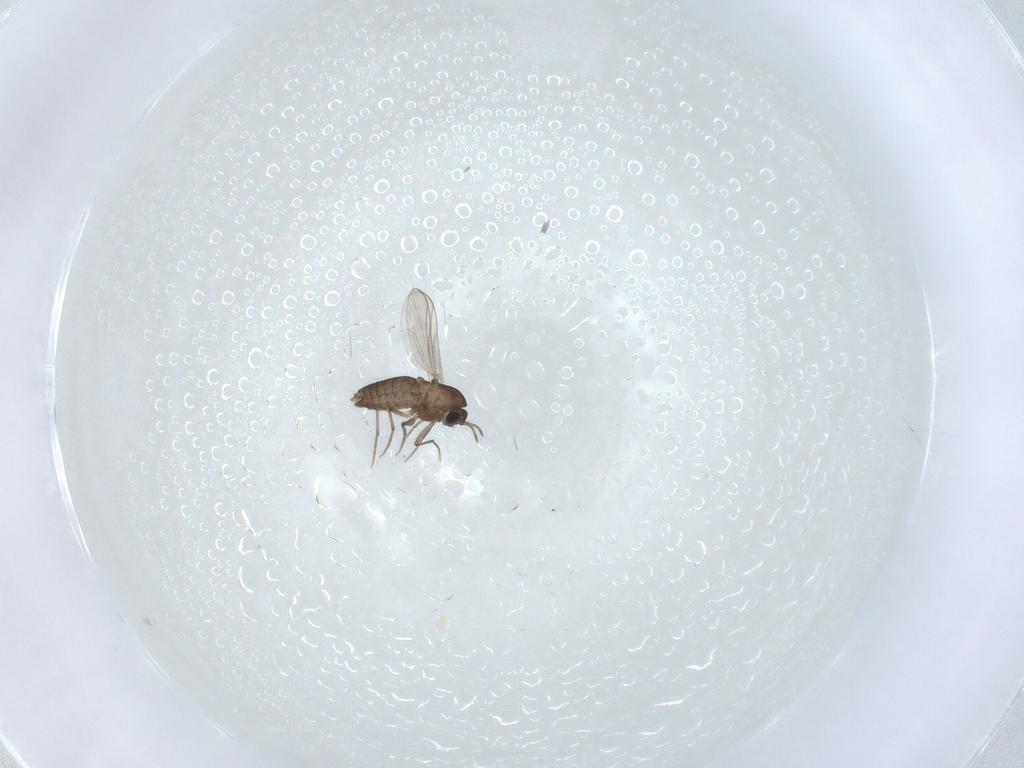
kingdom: Animalia
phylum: Arthropoda
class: Insecta
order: Diptera
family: Chironomidae
